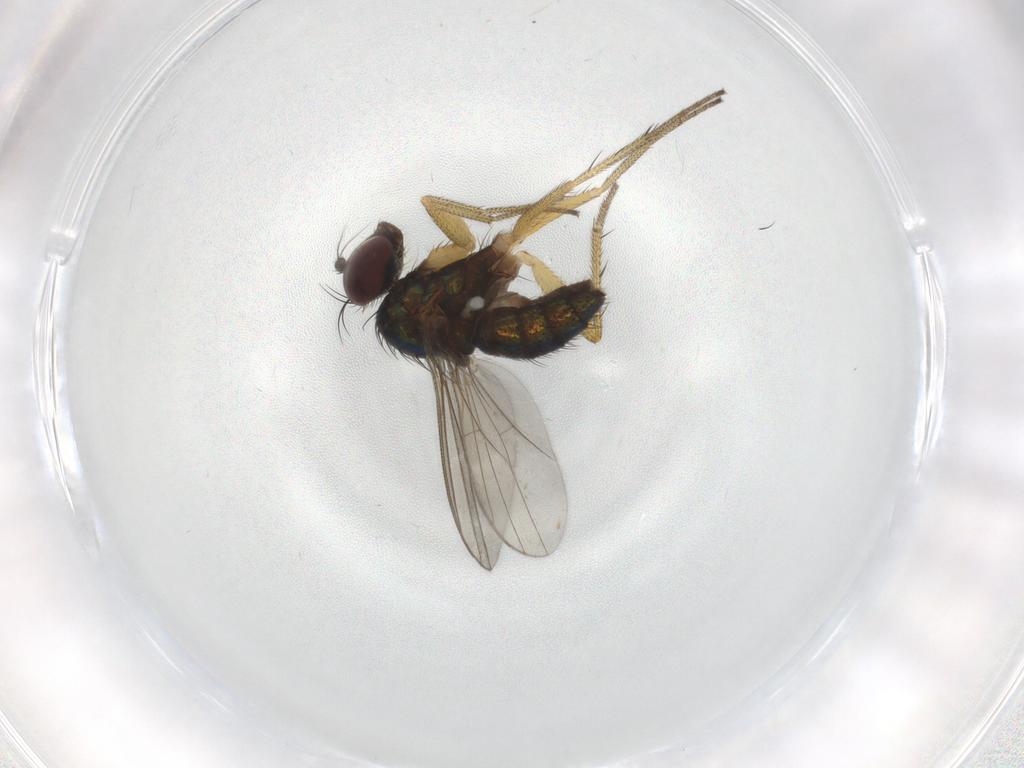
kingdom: Animalia
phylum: Arthropoda
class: Insecta
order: Diptera
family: Dolichopodidae
